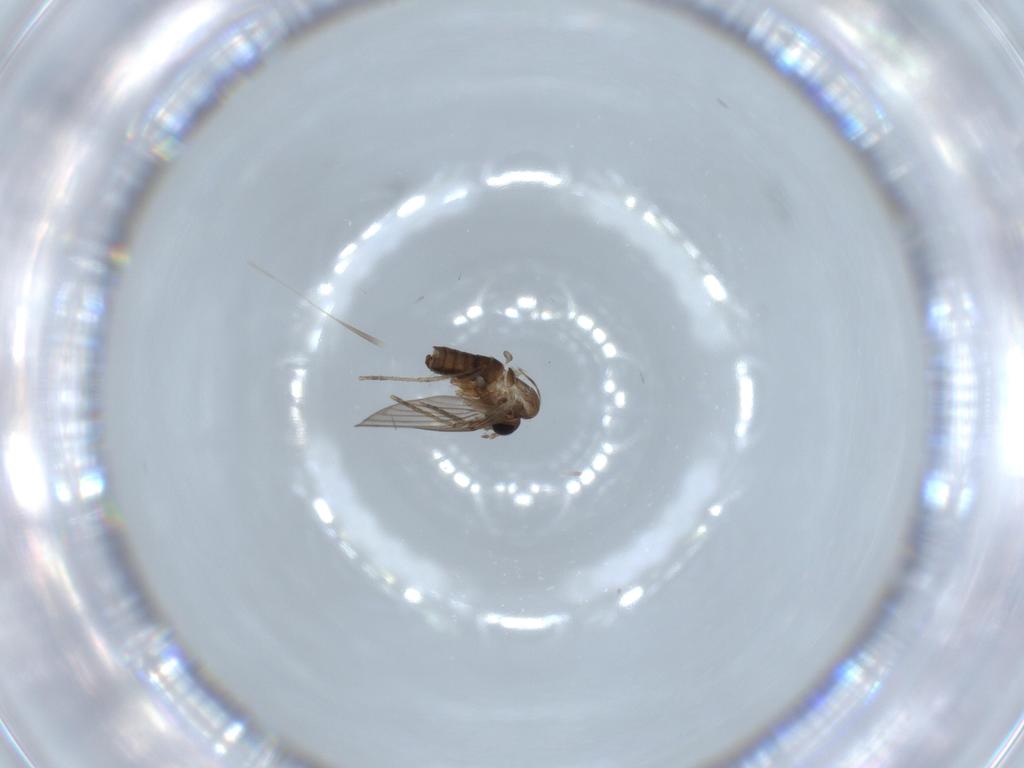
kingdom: Animalia
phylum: Arthropoda
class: Insecta
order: Diptera
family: Psychodidae
